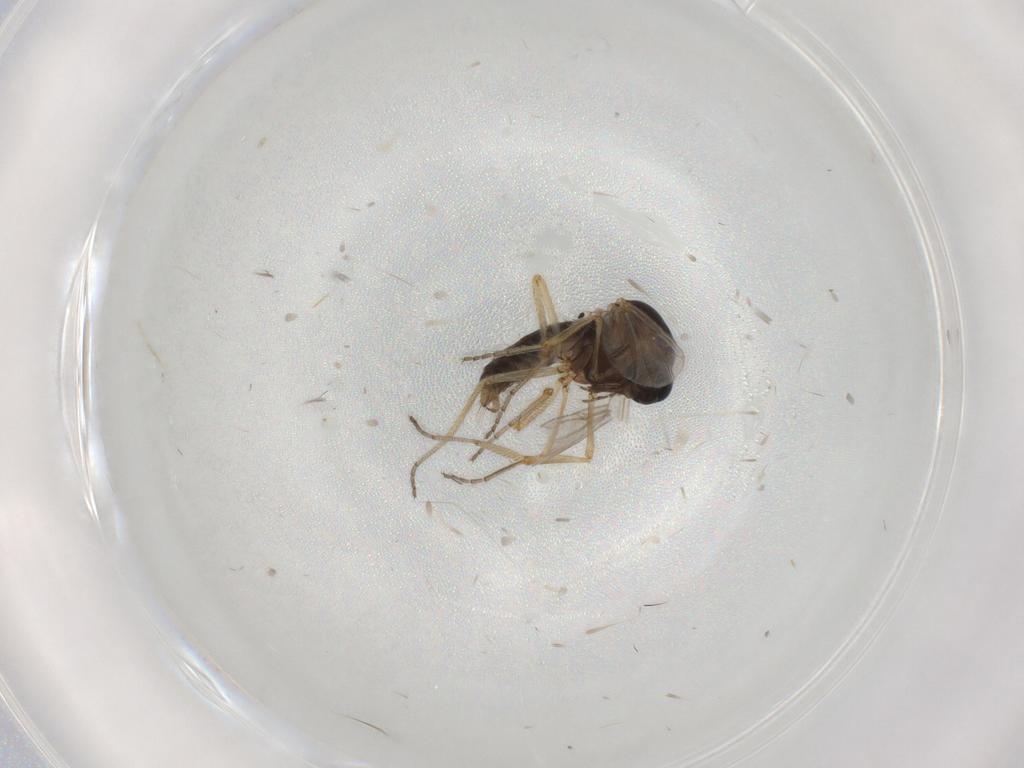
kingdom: Animalia
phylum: Arthropoda
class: Insecta
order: Diptera
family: Ceratopogonidae
